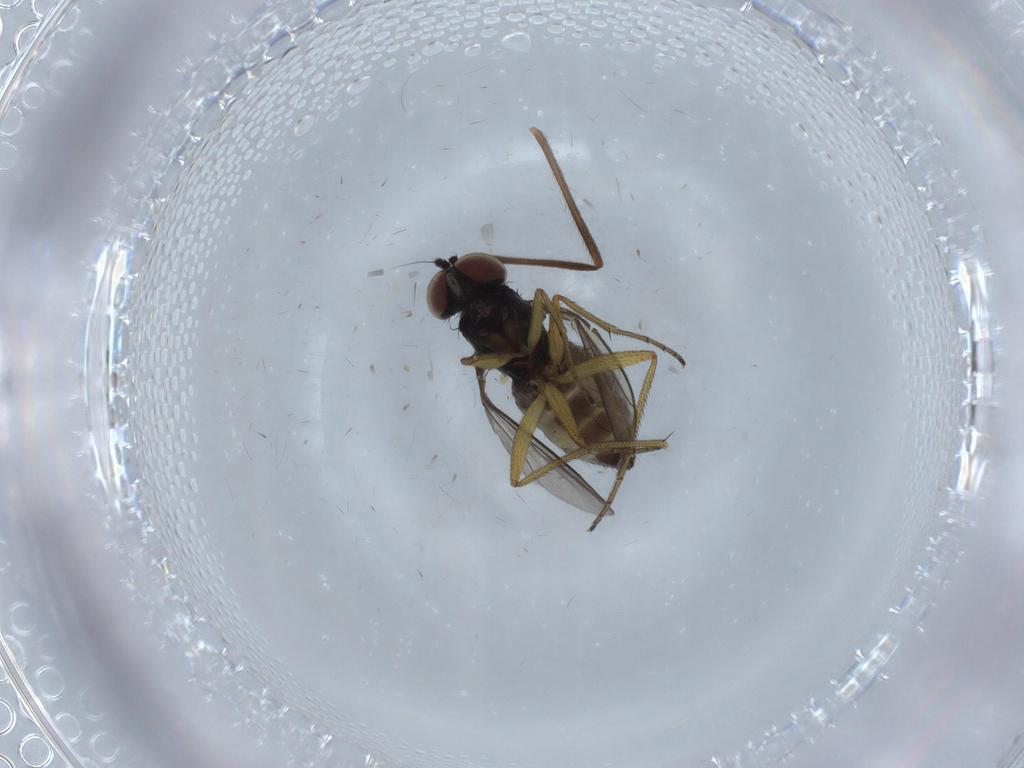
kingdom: Animalia
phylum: Arthropoda
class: Insecta
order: Diptera
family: Dolichopodidae
